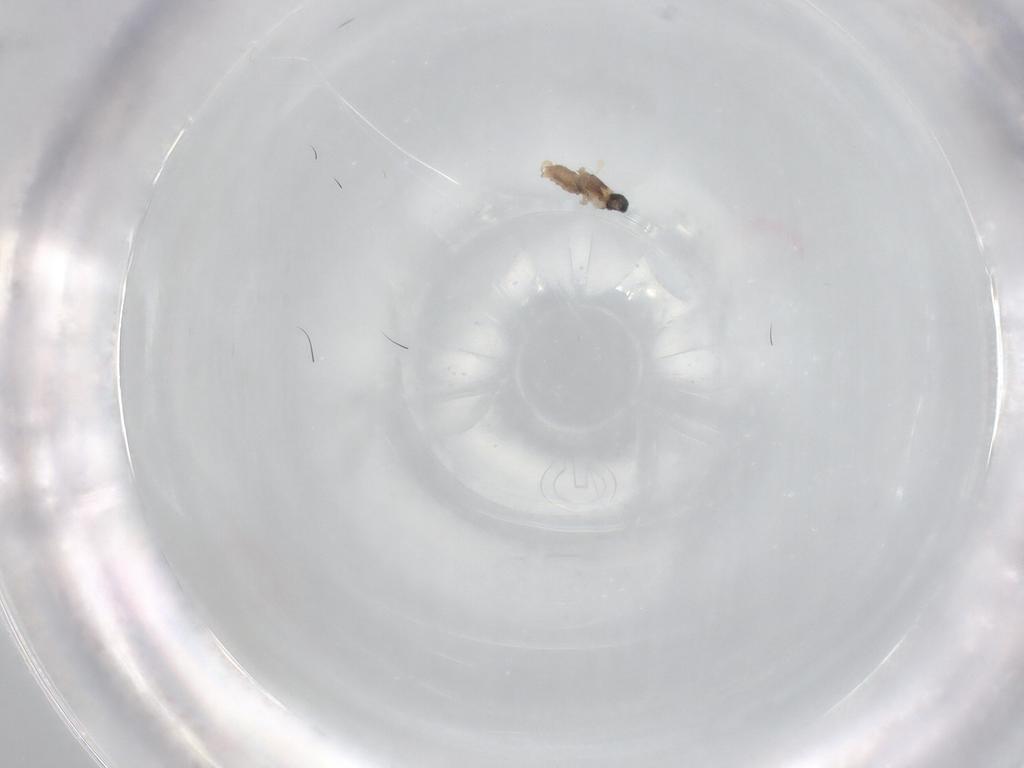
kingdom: Animalia
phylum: Arthropoda
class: Insecta
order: Diptera
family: Cecidomyiidae
